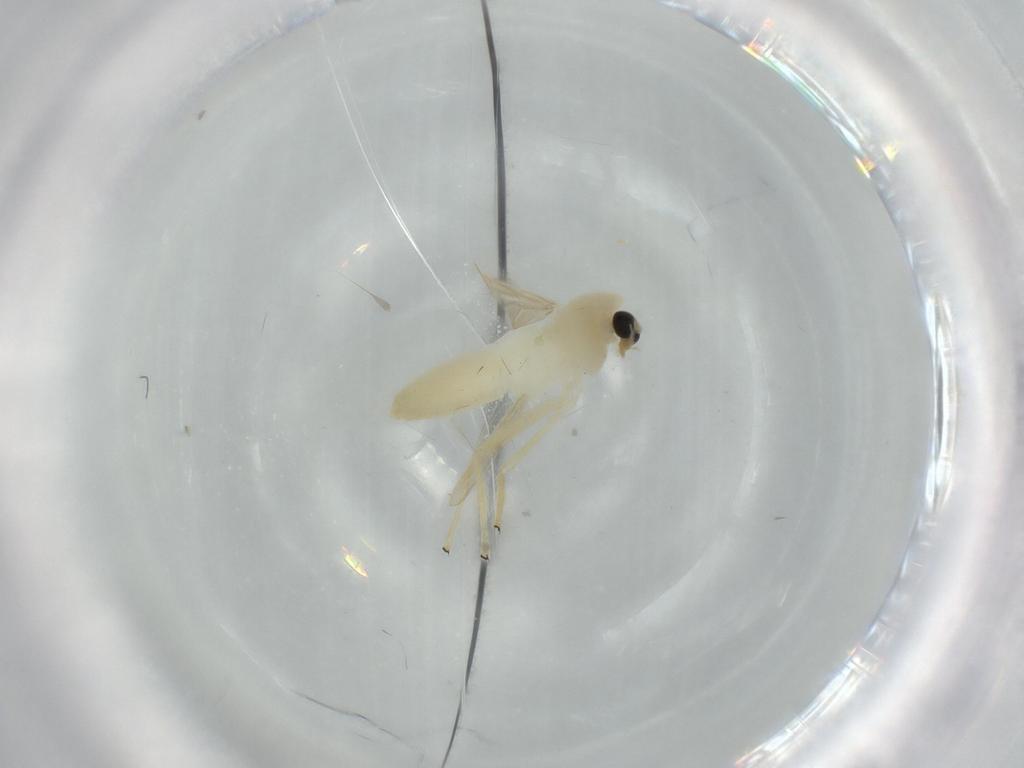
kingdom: Animalia
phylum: Arthropoda
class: Insecta
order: Diptera
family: Chironomidae
